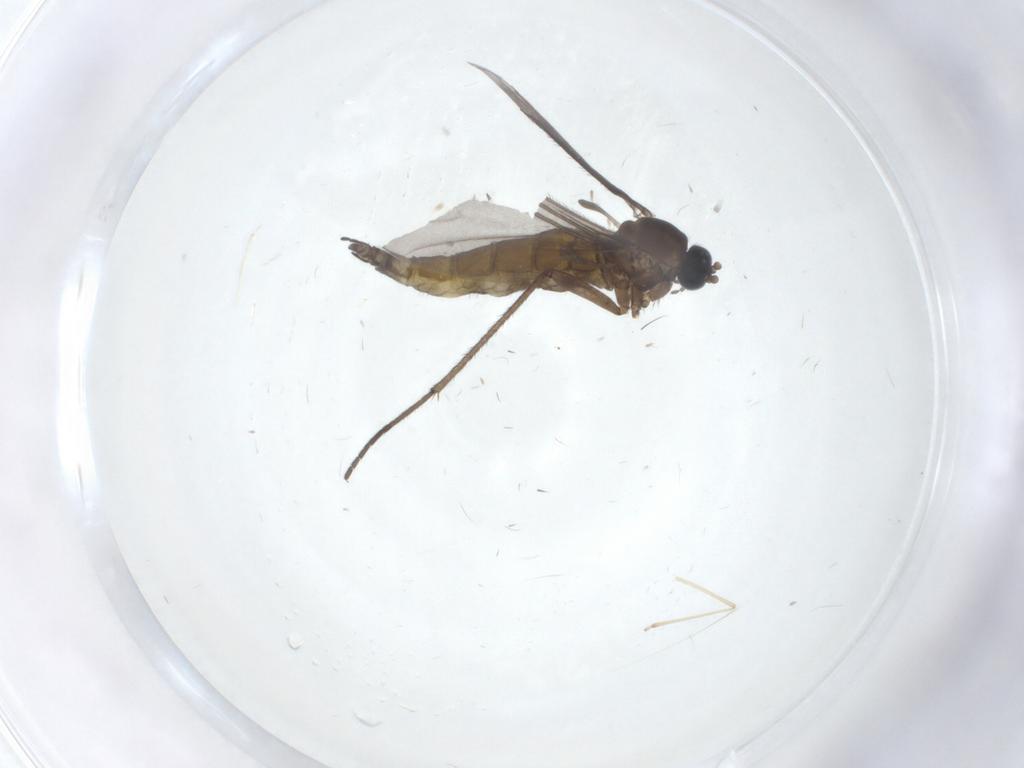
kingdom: Animalia
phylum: Arthropoda
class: Insecta
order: Diptera
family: Sciaridae
